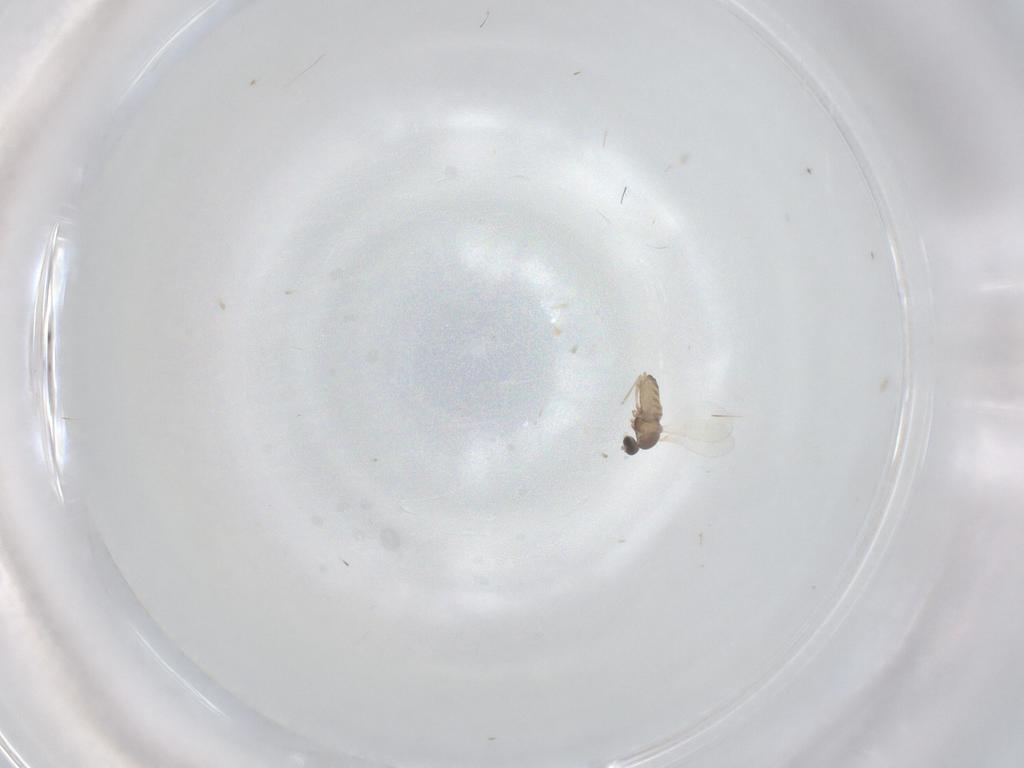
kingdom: Animalia
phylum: Arthropoda
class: Insecta
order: Diptera
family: Cecidomyiidae
